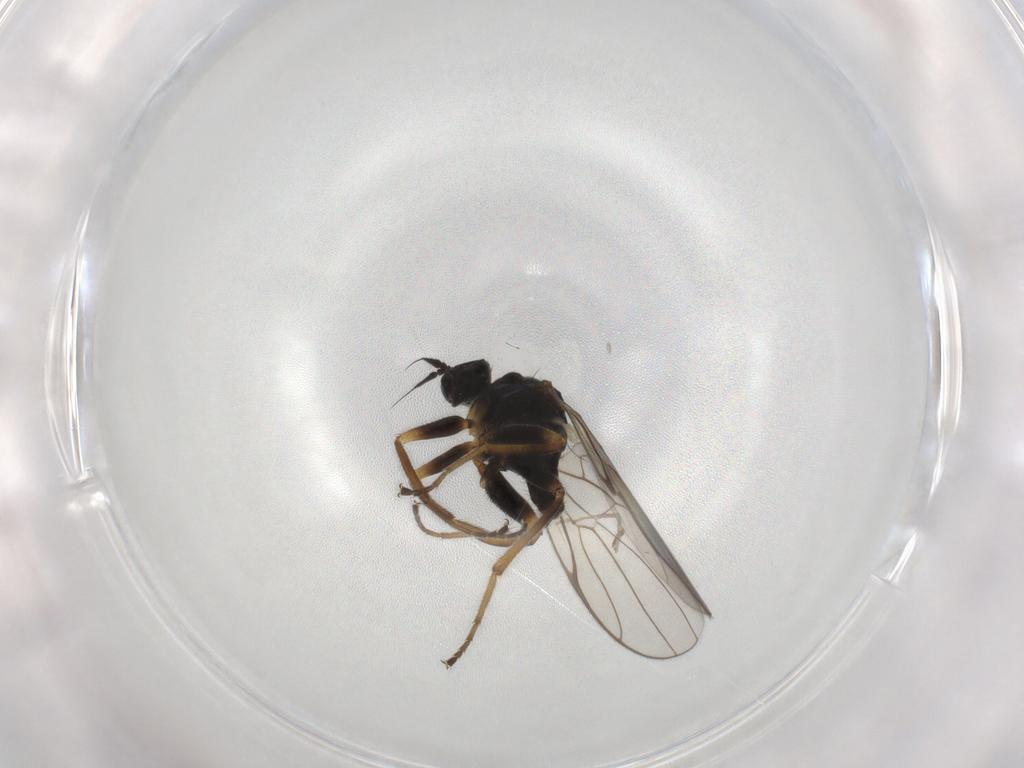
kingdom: Animalia
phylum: Arthropoda
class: Insecta
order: Diptera
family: Hybotidae
